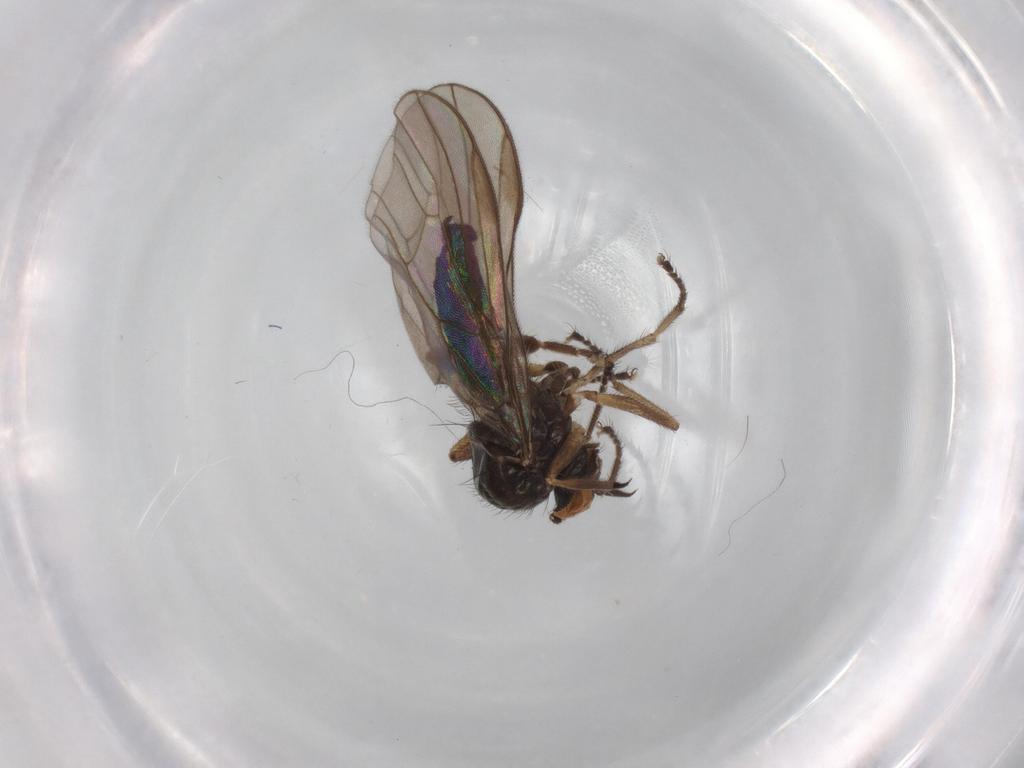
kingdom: Animalia
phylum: Arthropoda
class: Insecta
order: Diptera
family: Hybotidae
